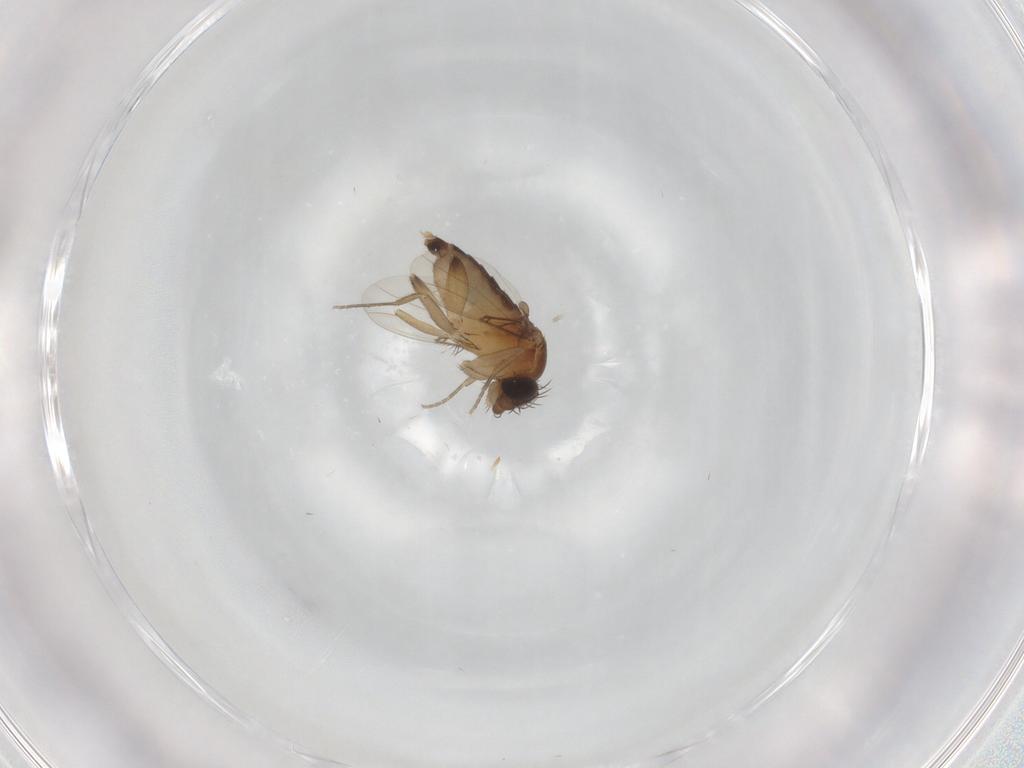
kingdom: Animalia
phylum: Arthropoda
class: Insecta
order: Diptera
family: Phoridae
